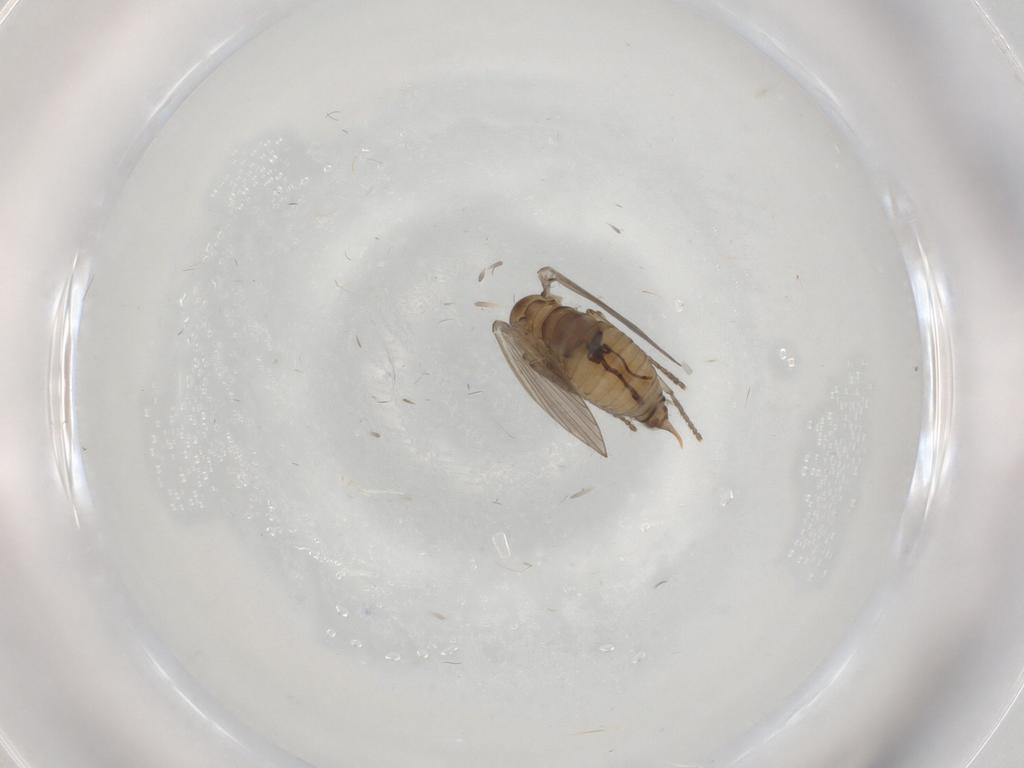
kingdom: Animalia
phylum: Arthropoda
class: Insecta
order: Diptera
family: Psychodidae
